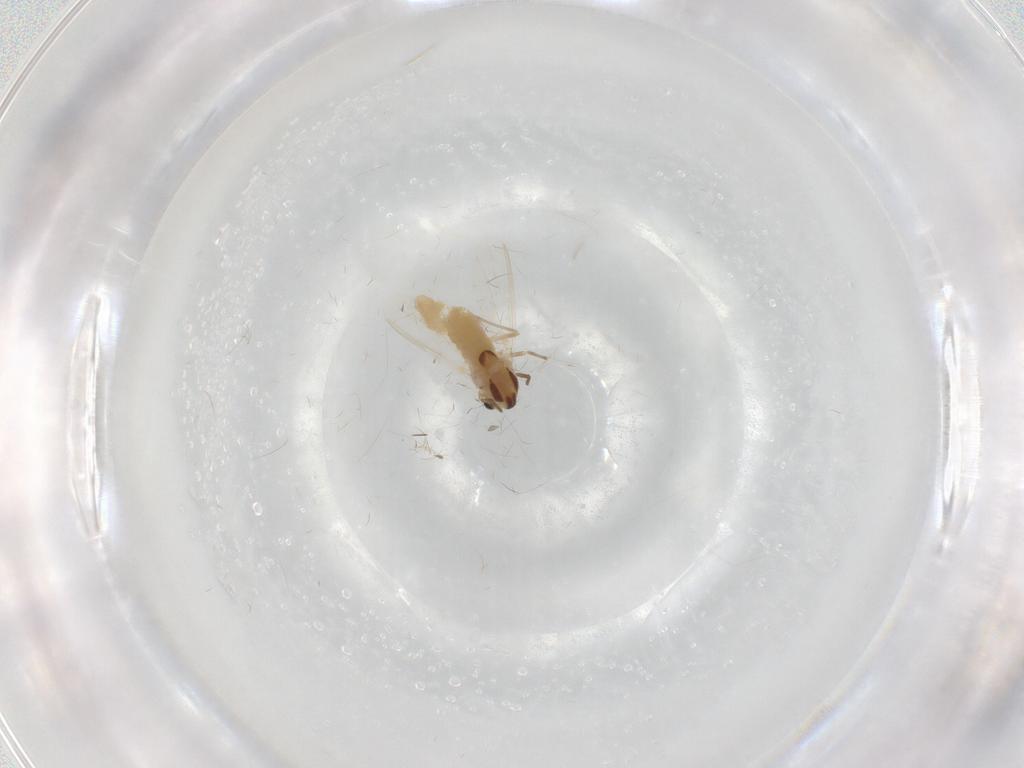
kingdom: Animalia
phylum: Arthropoda
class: Insecta
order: Diptera
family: Chironomidae
